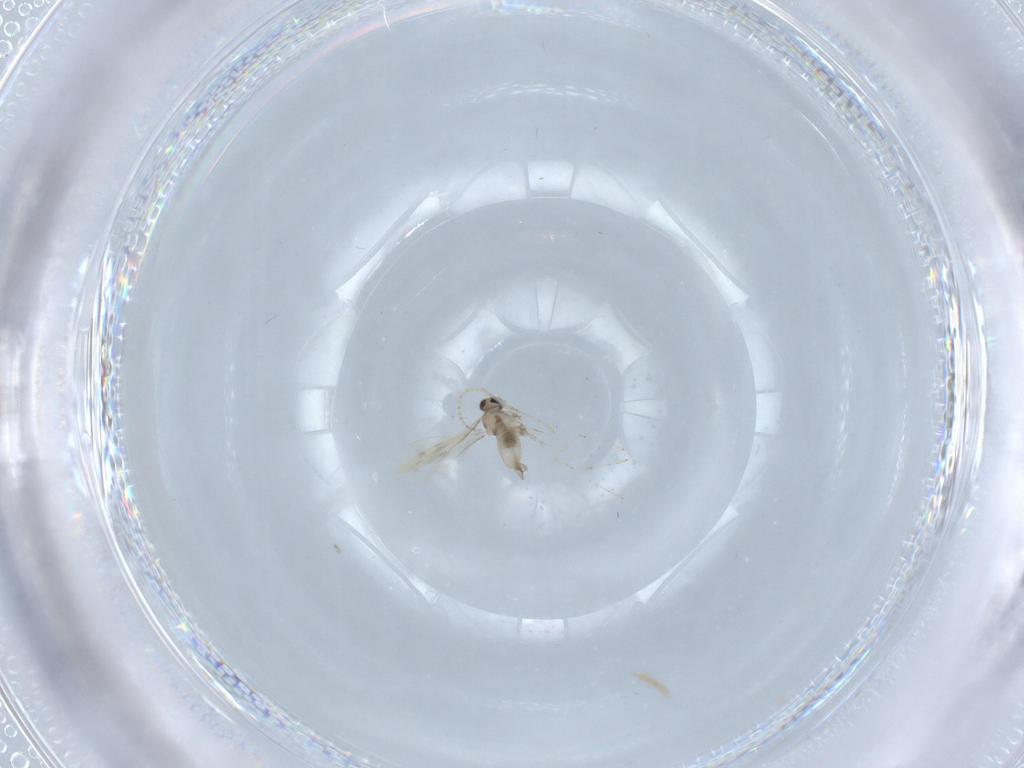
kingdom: Animalia
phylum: Arthropoda
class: Insecta
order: Diptera
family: Cecidomyiidae
